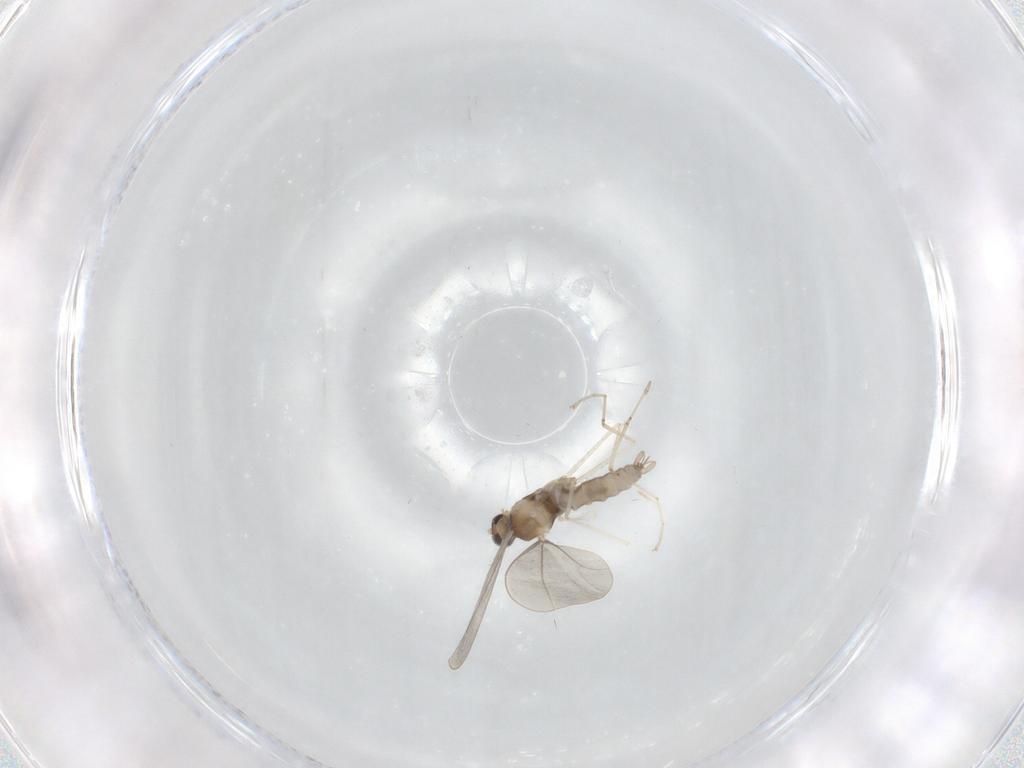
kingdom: Animalia
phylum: Arthropoda
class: Insecta
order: Diptera
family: Cecidomyiidae
